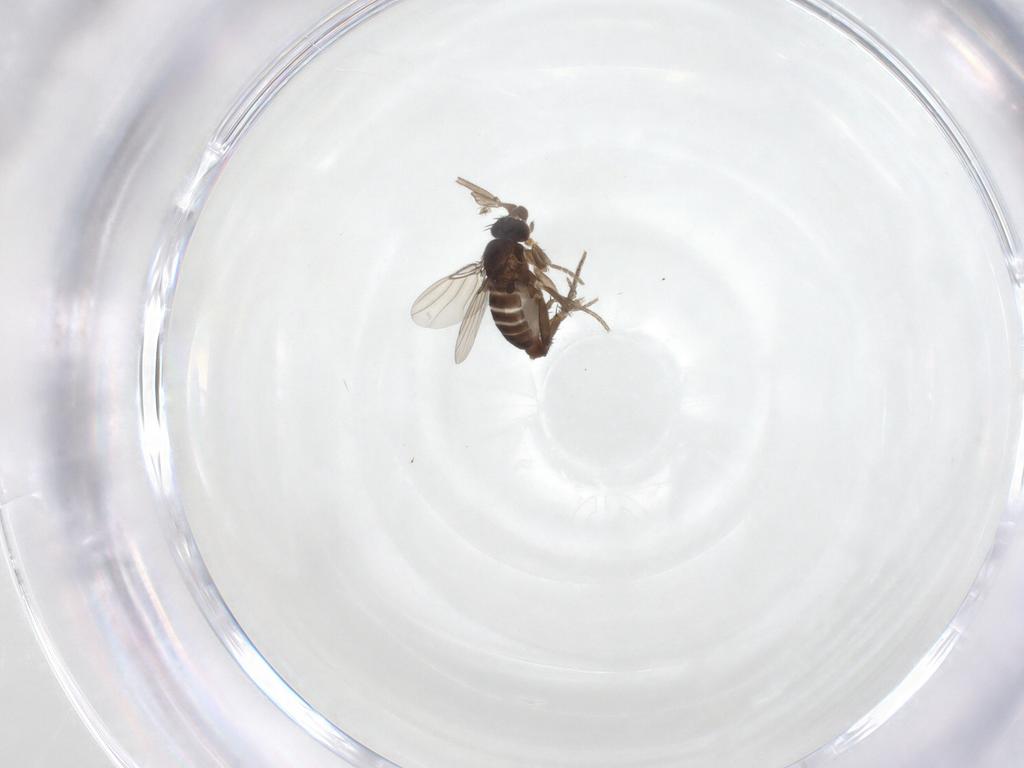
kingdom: Animalia
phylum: Arthropoda
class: Insecta
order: Diptera
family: Phoridae
